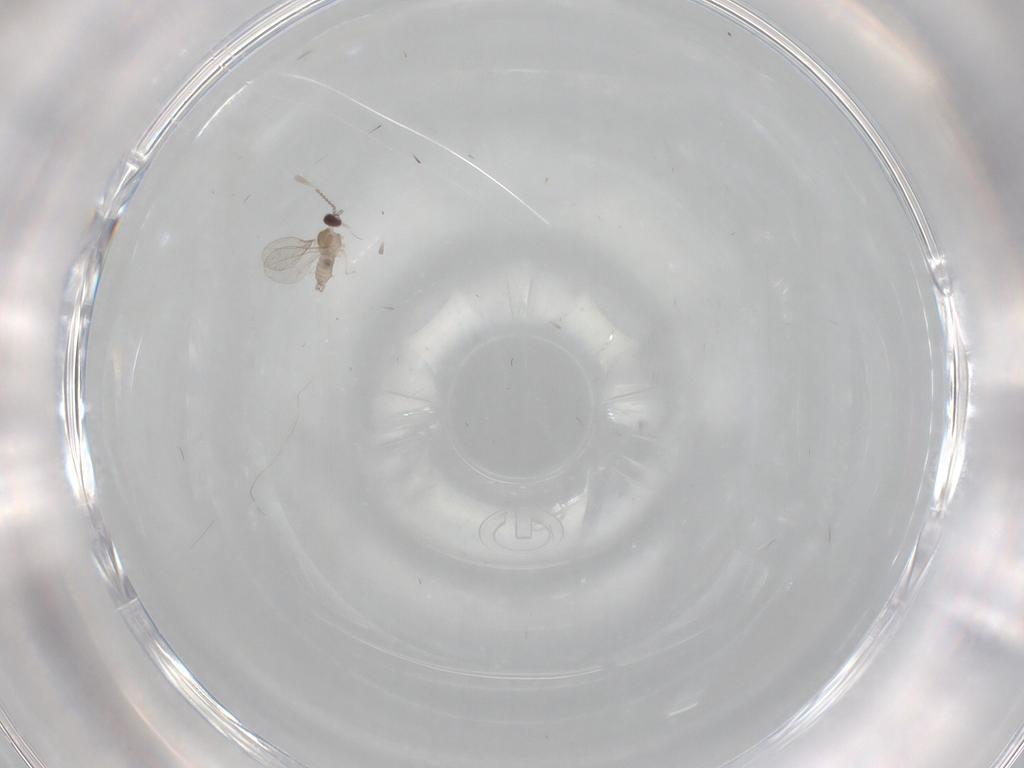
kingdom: Animalia
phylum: Arthropoda
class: Insecta
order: Diptera
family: Cecidomyiidae
